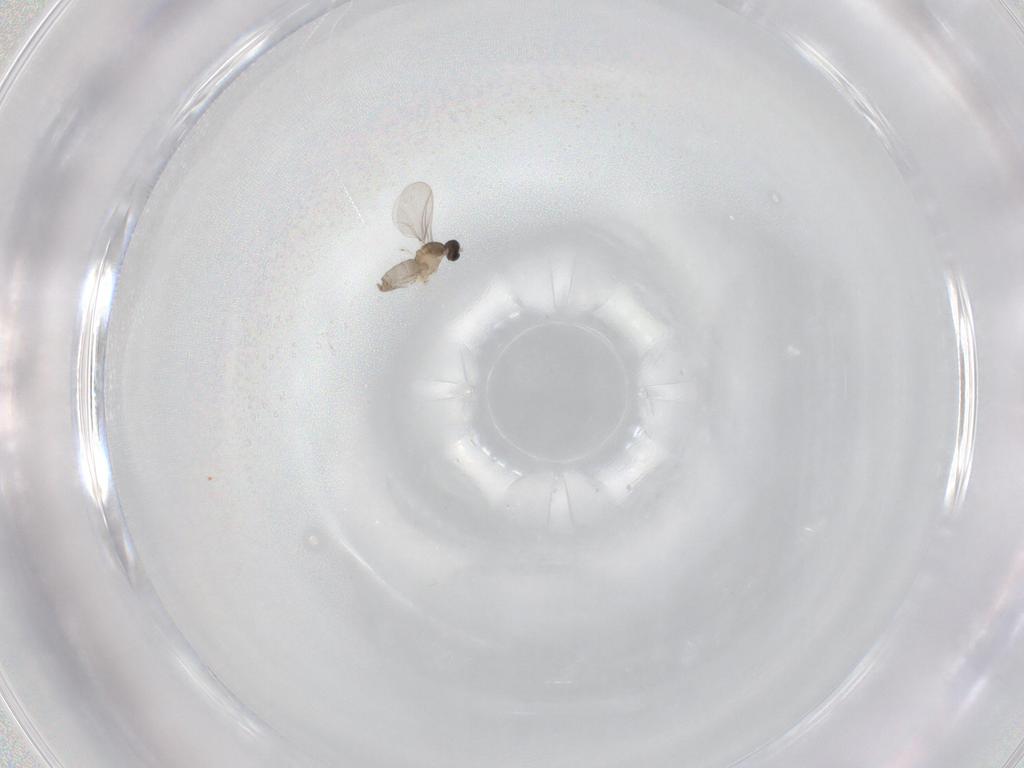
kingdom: Animalia
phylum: Arthropoda
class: Insecta
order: Diptera
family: Cecidomyiidae
